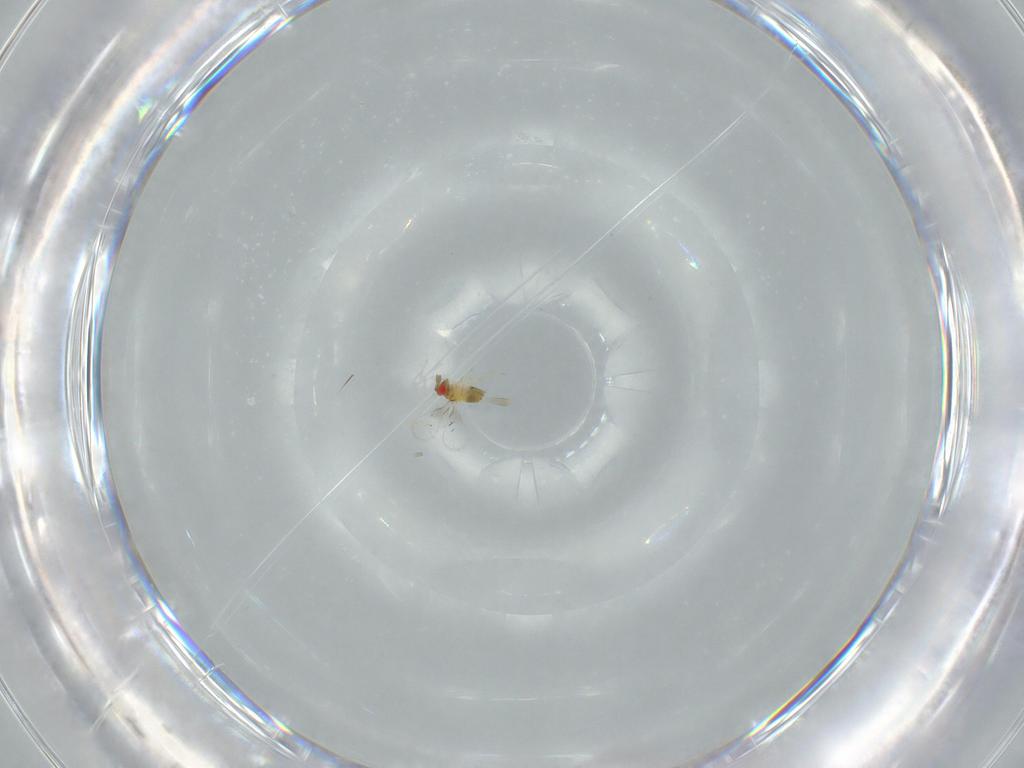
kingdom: Animalia
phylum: Arthropoda
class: Insecta
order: Hymenoptera
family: Trichogrammatidae
